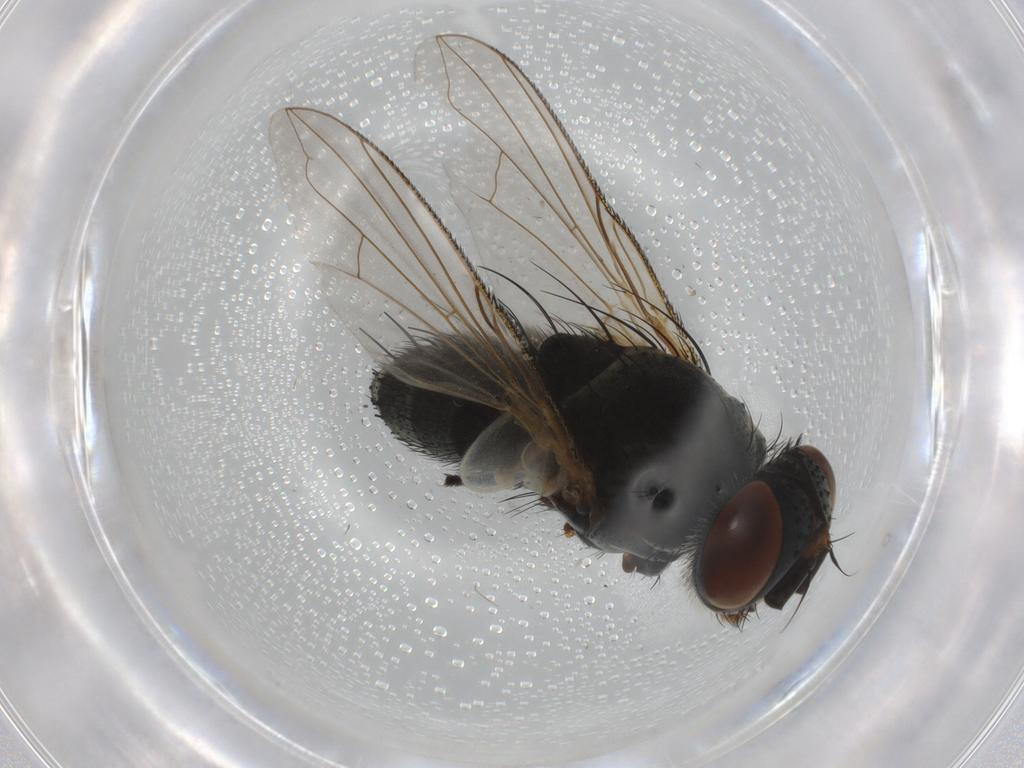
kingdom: Animalia
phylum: Arthropoda
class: Insecta
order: Diptera
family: Tachinidae
